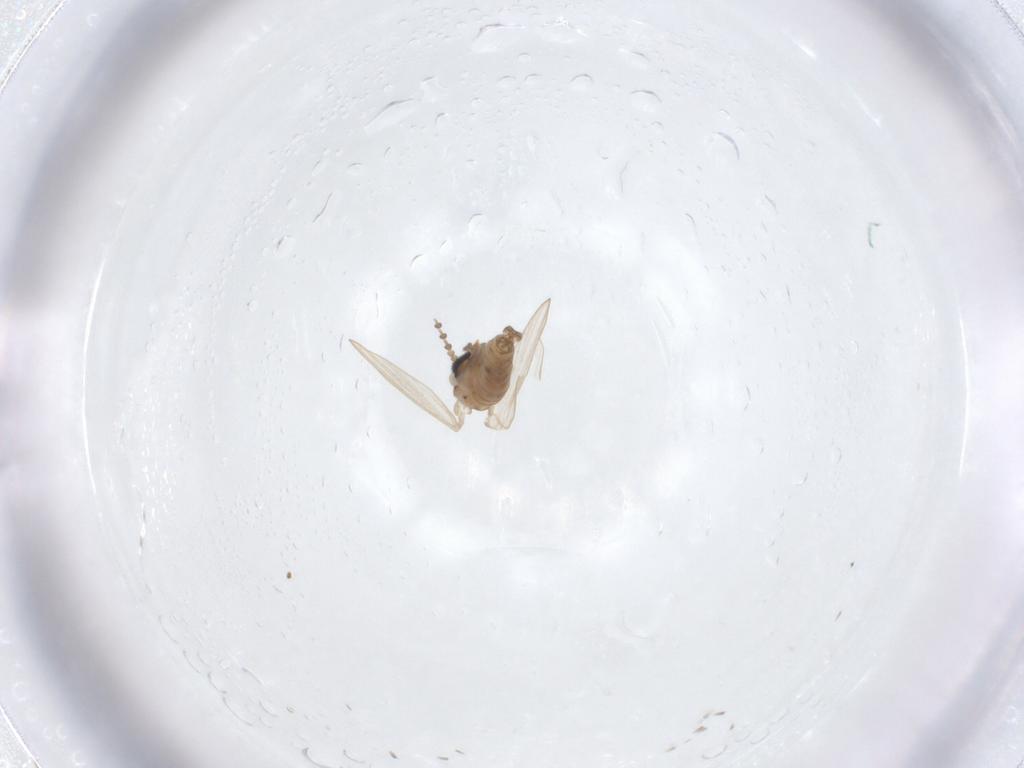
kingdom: Animalia
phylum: Arthropoda
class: Insecta
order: Diptera
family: Psychodidae
